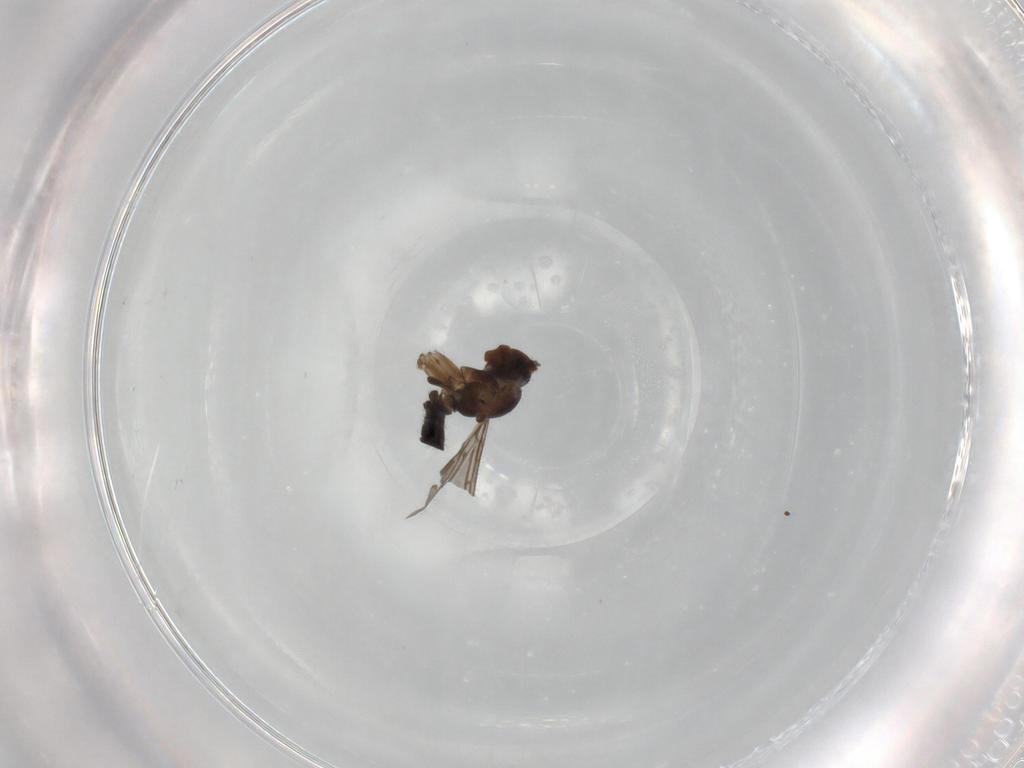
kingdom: Animalia
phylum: Arthropoda
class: Insecta
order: Diptera
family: Sciaridae
